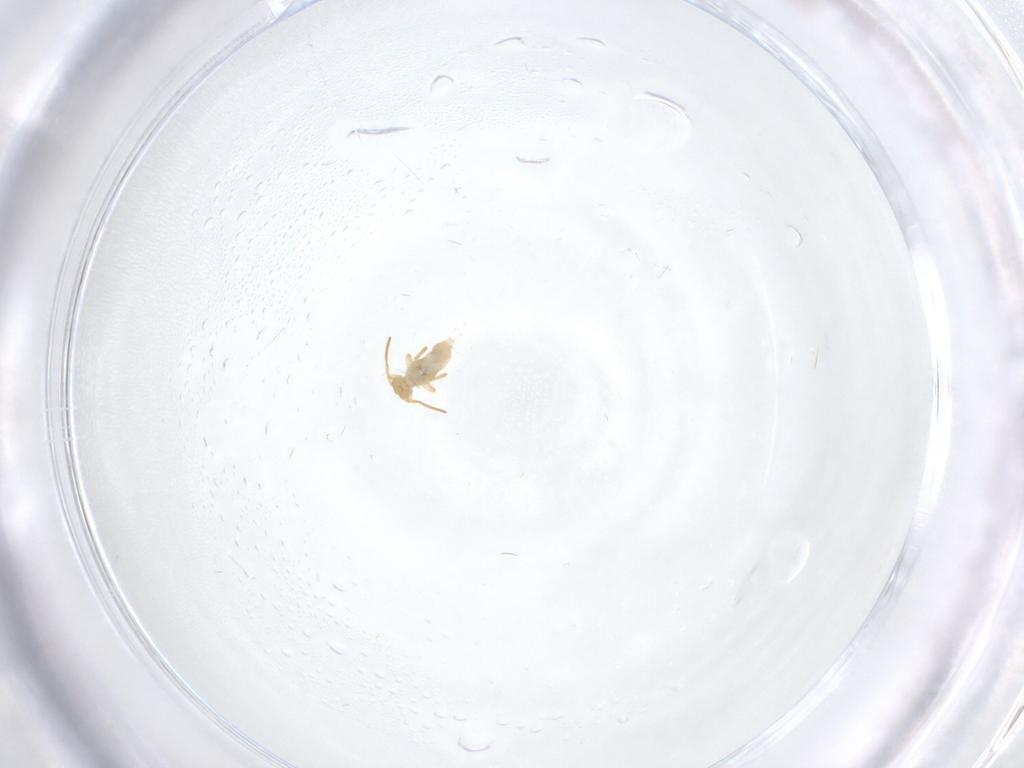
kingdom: Animalia
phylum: Arthropoda
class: Collembola
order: Symphypleona
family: Katiannidae
